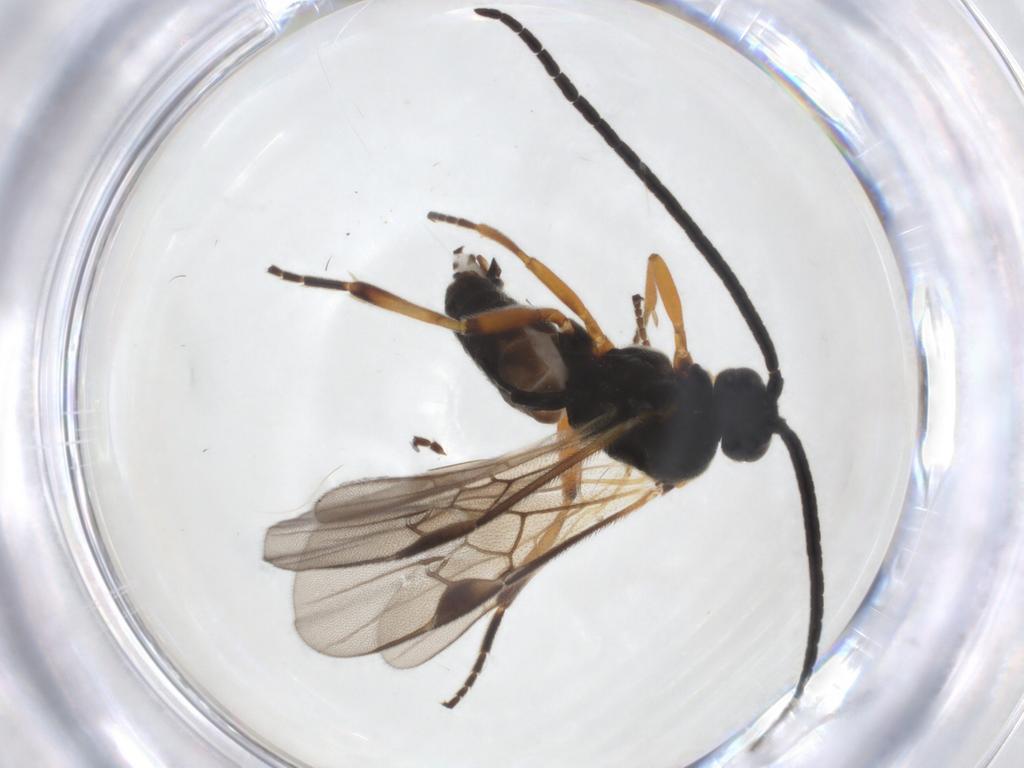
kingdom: Animalia
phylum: Arthropoda
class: Insecta
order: Hymenoptera
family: Braconidae
